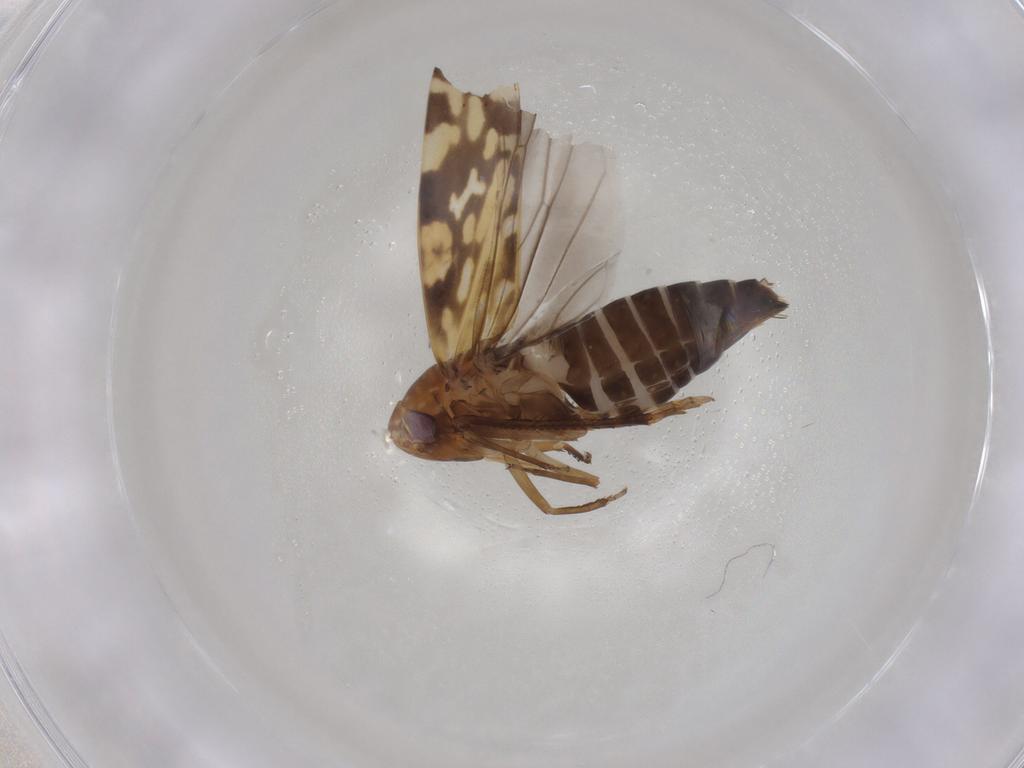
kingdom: Animalia
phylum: Arthropoda
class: Insecta
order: Hemiptera
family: Cicadellidae
